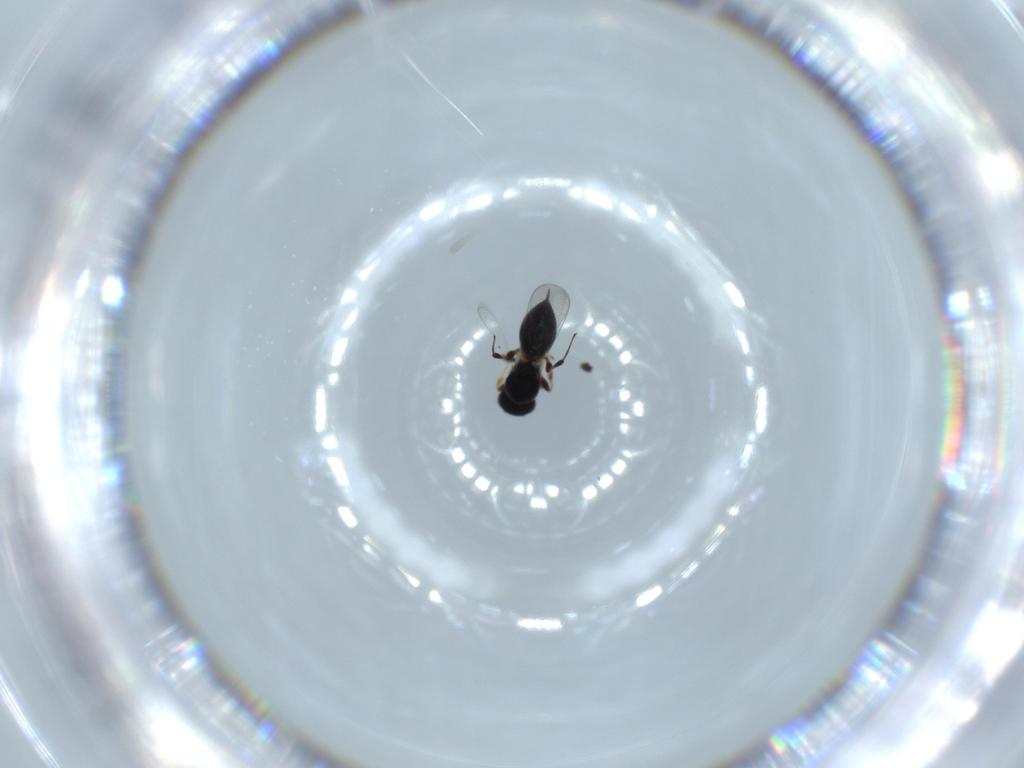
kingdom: Animalia
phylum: Arthropoda
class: Insecta
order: Hymenoptera
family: Platygastridae
